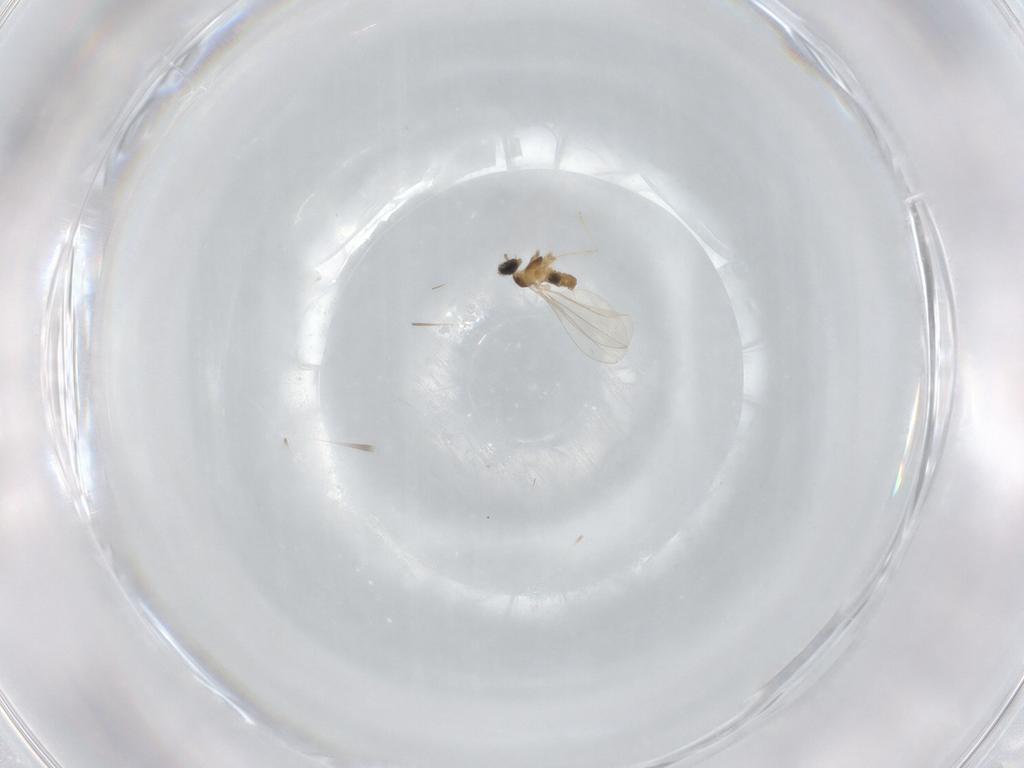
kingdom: Animalia
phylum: Arthropoda
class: Insecta
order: Diptera
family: Cecidomyiidae
